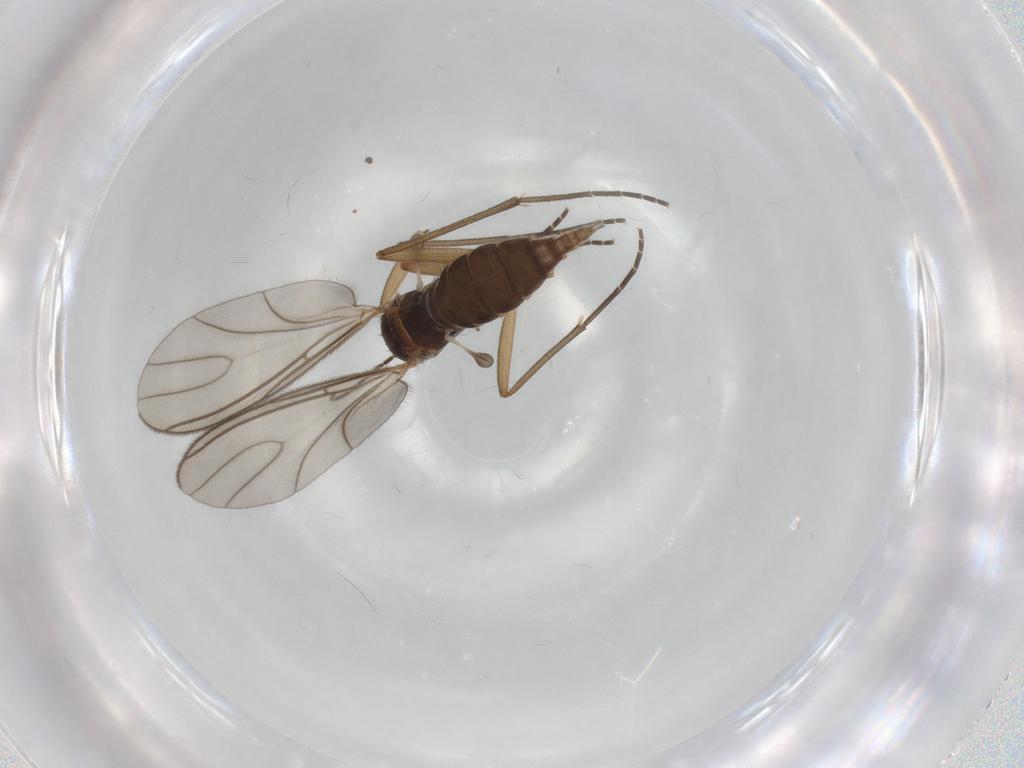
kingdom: Animalia
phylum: Arthropoda
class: Insecta
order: Diptera
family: Sciaridae
